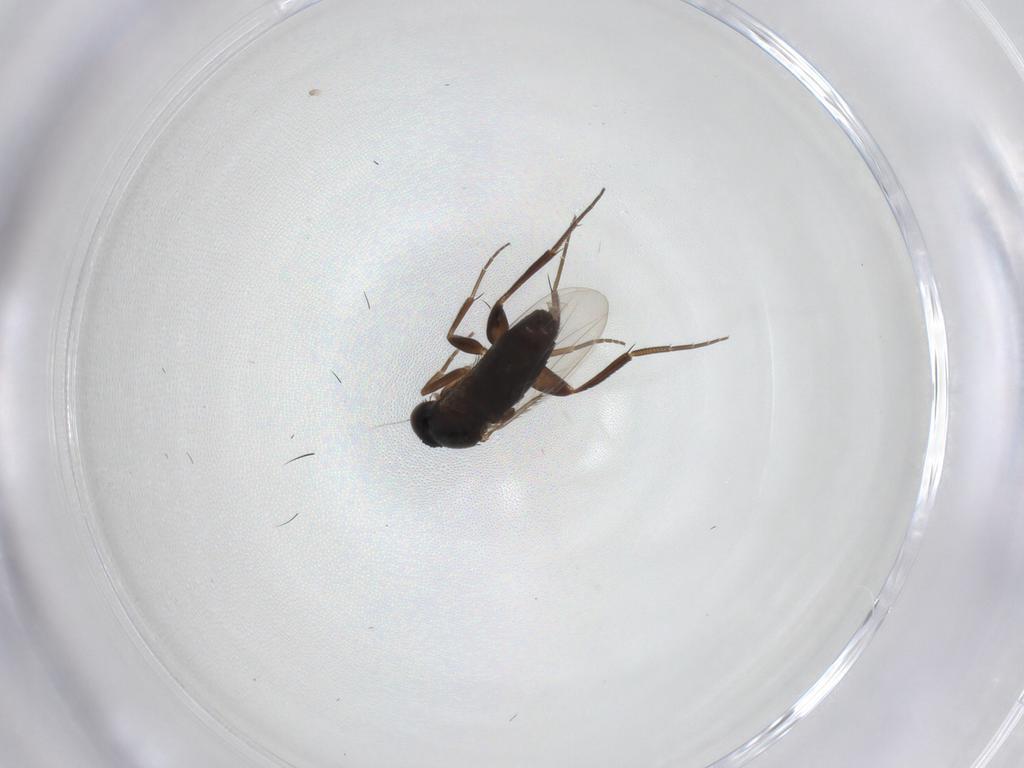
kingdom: Animalia
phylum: Arthropoda
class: Insecta
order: Diptera
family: Phoridae
